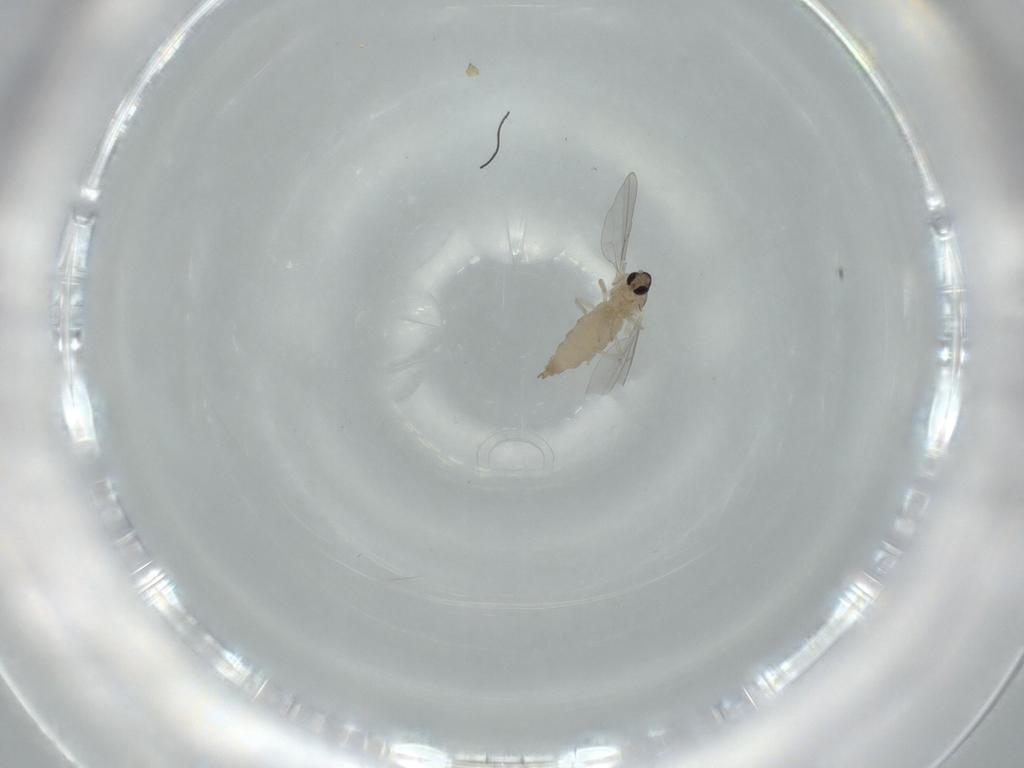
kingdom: Animalia
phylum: Arthropoda
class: Insecta
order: Diptera
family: Cecidomyiidae
